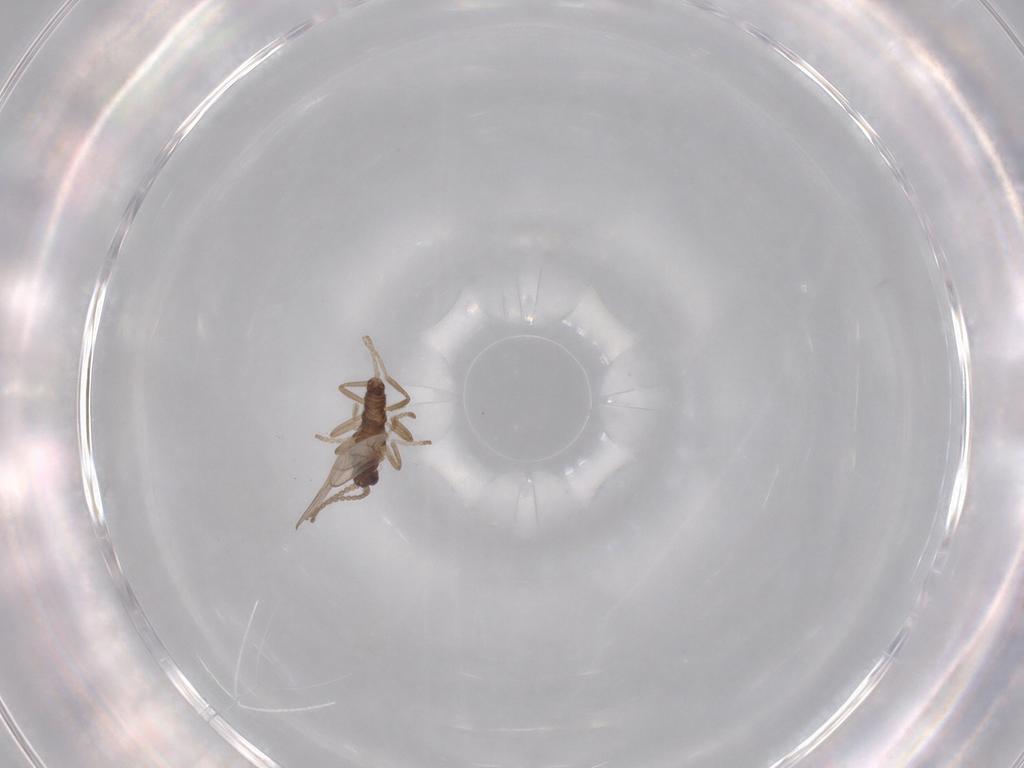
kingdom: Animalia
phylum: Arthropoda
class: Insecta
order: Diptera
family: Cecidomyiidae
